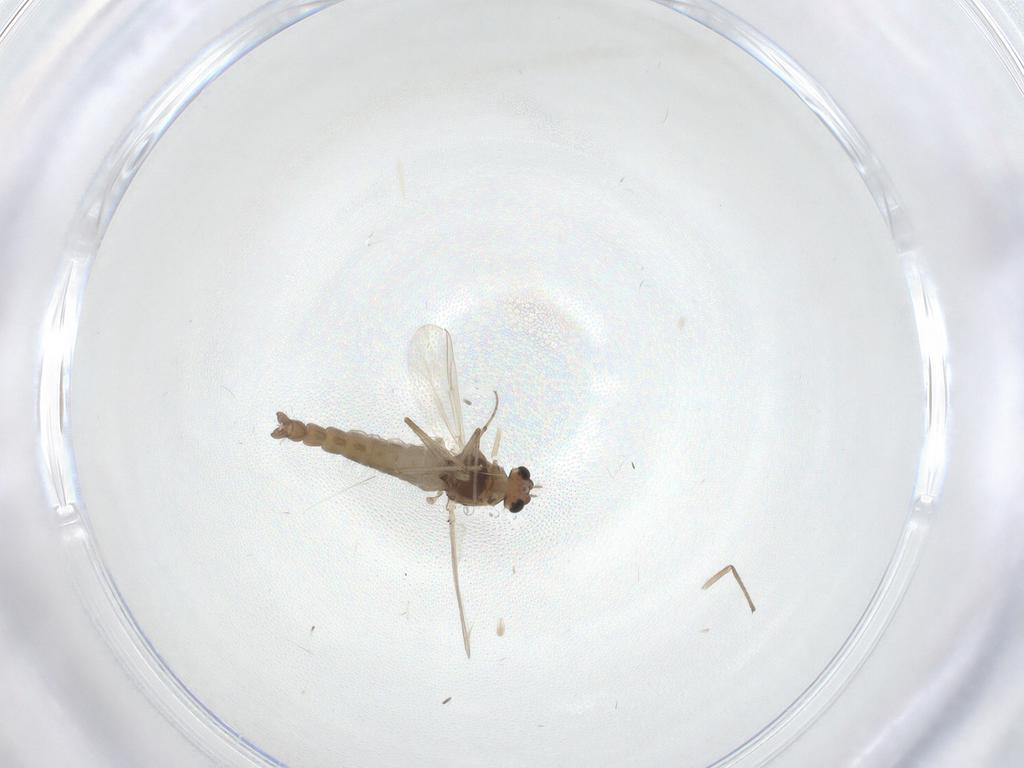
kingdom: Animalia
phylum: Arthropoda
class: Insecta
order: Diptera
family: Chironomidae
